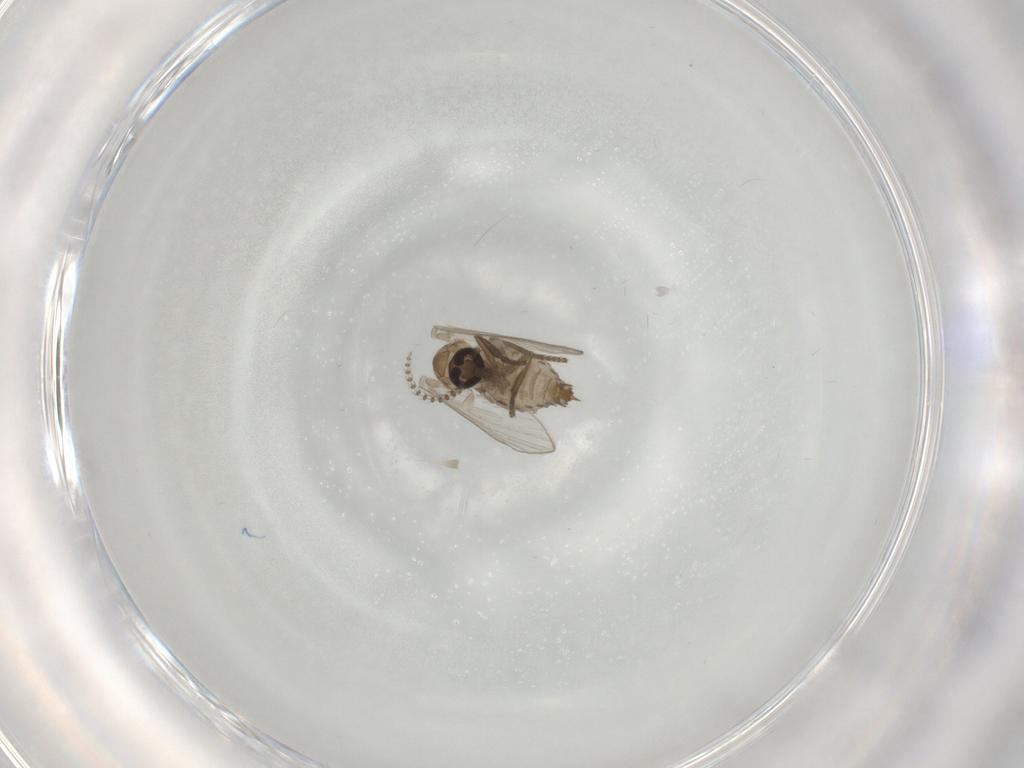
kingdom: Animalia
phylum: Arthropoda
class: Insecta
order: Diptera
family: Psychodidae
